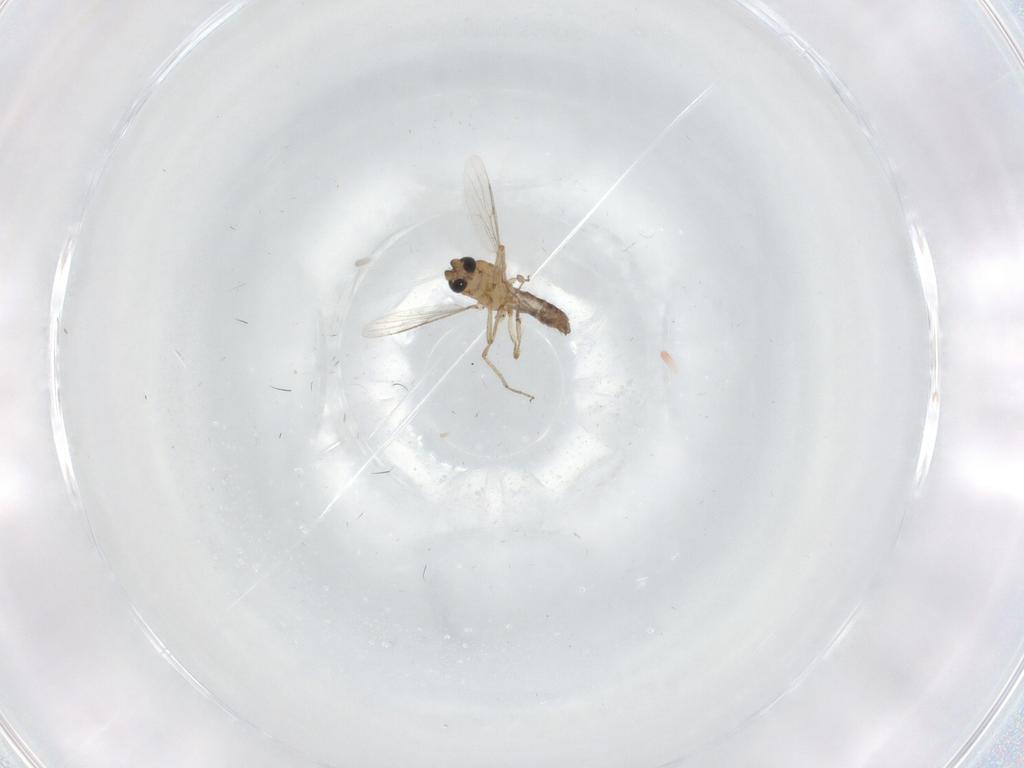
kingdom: Animalia
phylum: Arthropoda
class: Insecta
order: Diptera
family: Ceratopogonidae
